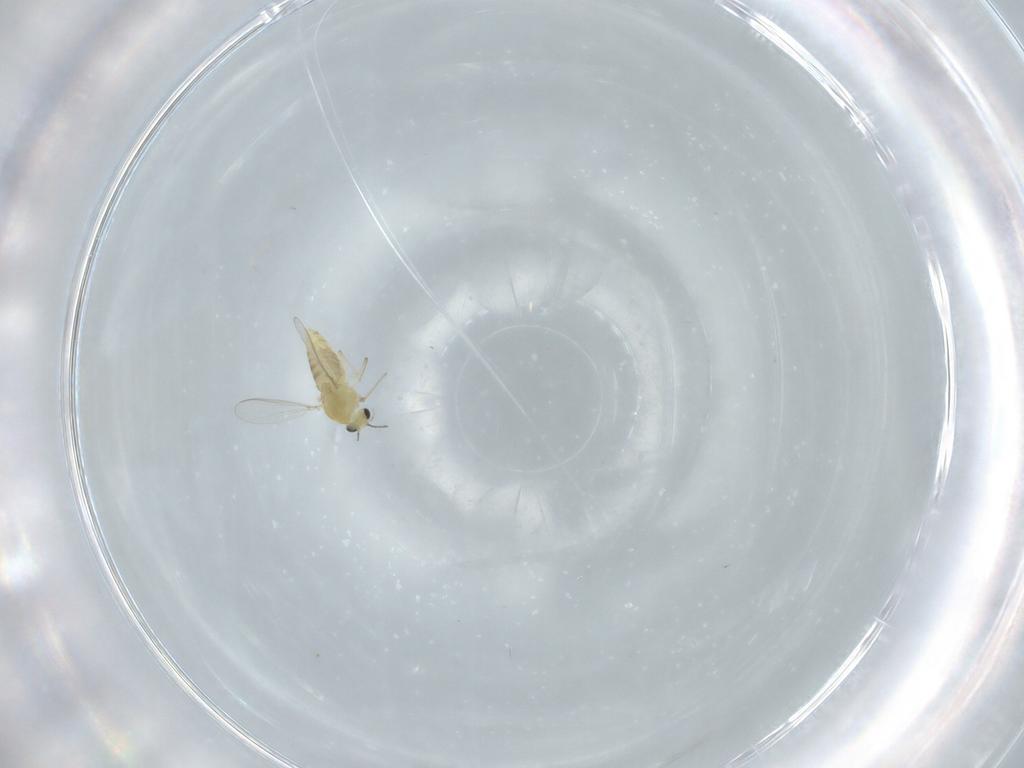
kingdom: Animalia
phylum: Arthropoda
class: Insecta
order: Diptera
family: Chironomidae
